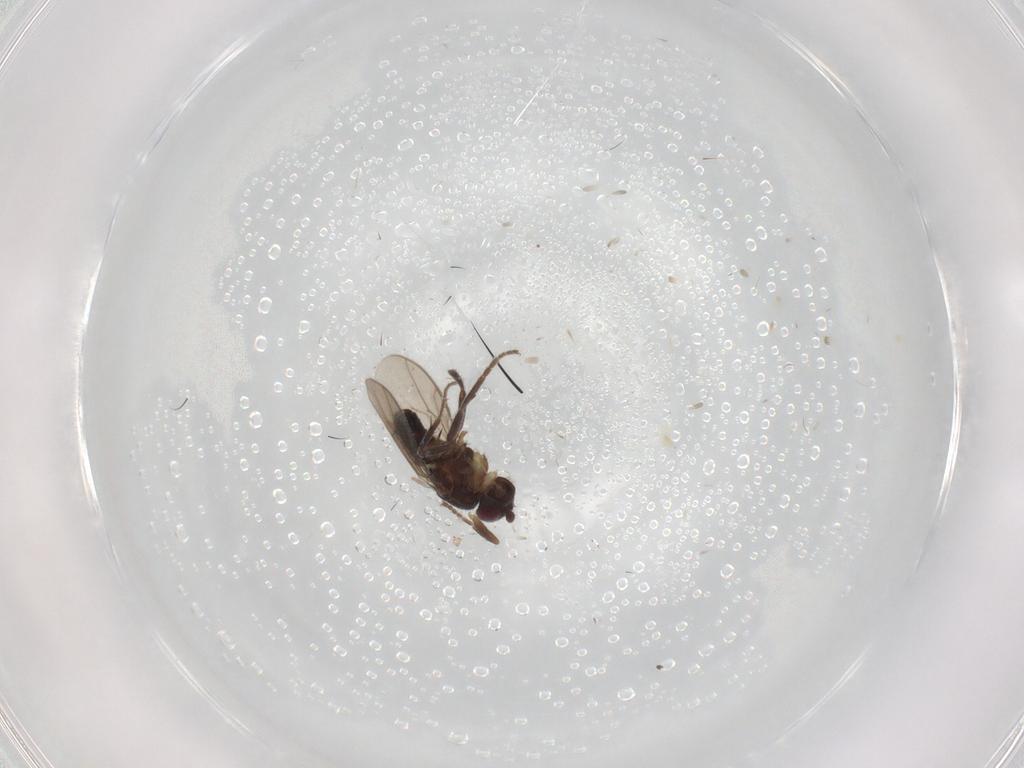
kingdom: Animalia
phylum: Arthropoda
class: Insecta
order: Diptera
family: Sphaeroceridae
